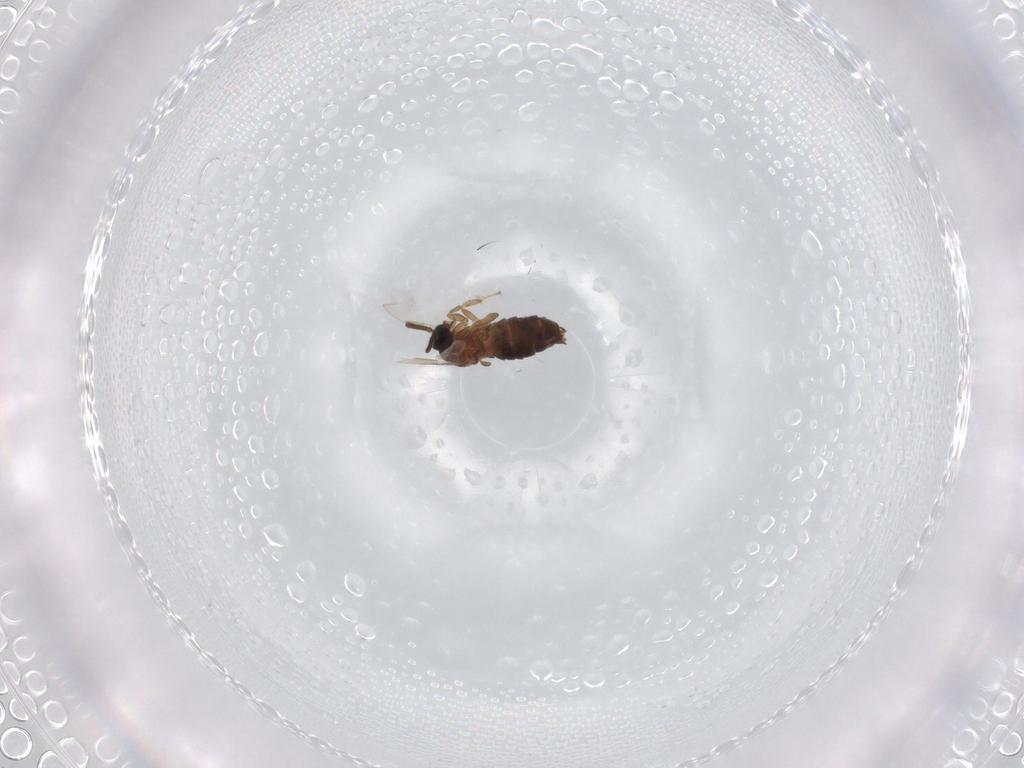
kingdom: Animalia
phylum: Arthropoda
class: Insecta
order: Diptera
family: Scatopsidae
